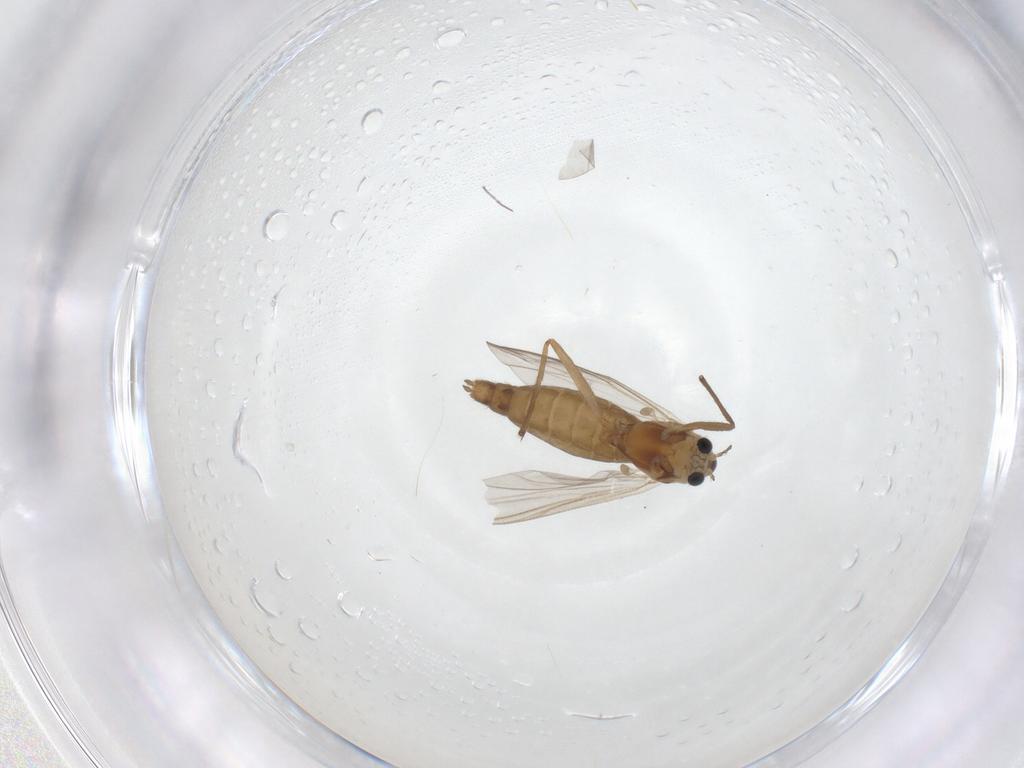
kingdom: Animalia
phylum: Arthropoda
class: Insecta
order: Diptera
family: Chironomidae
